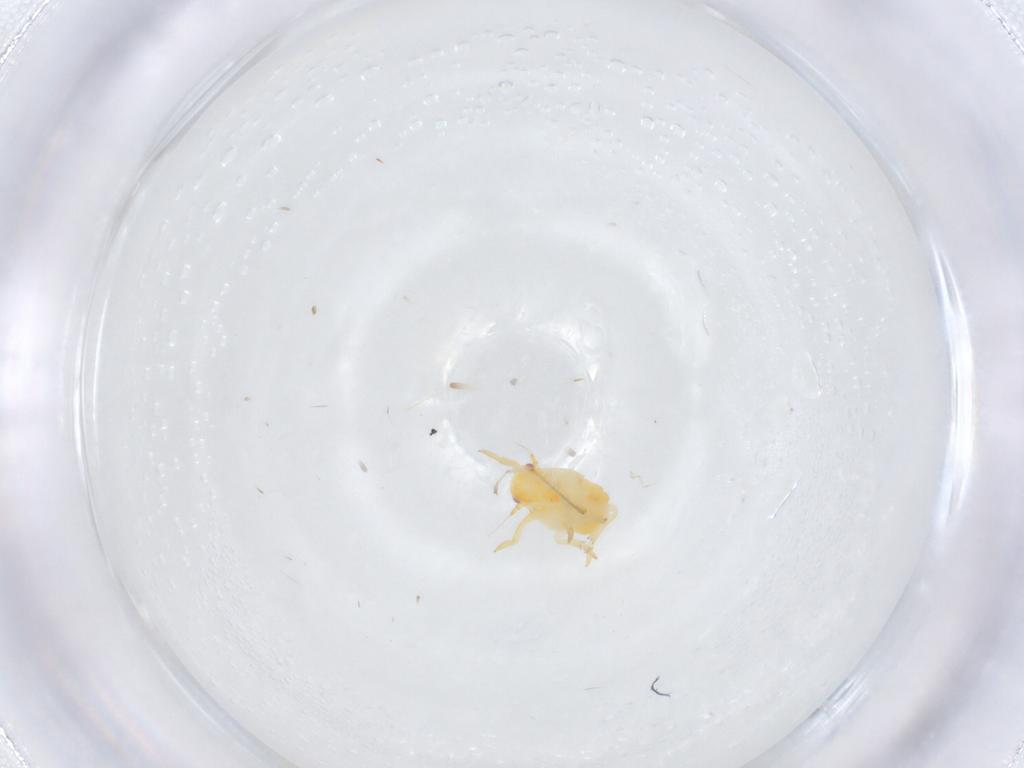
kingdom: Animalia
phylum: Arthropoda
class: Insecta
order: Hemiptera
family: Flatidae
